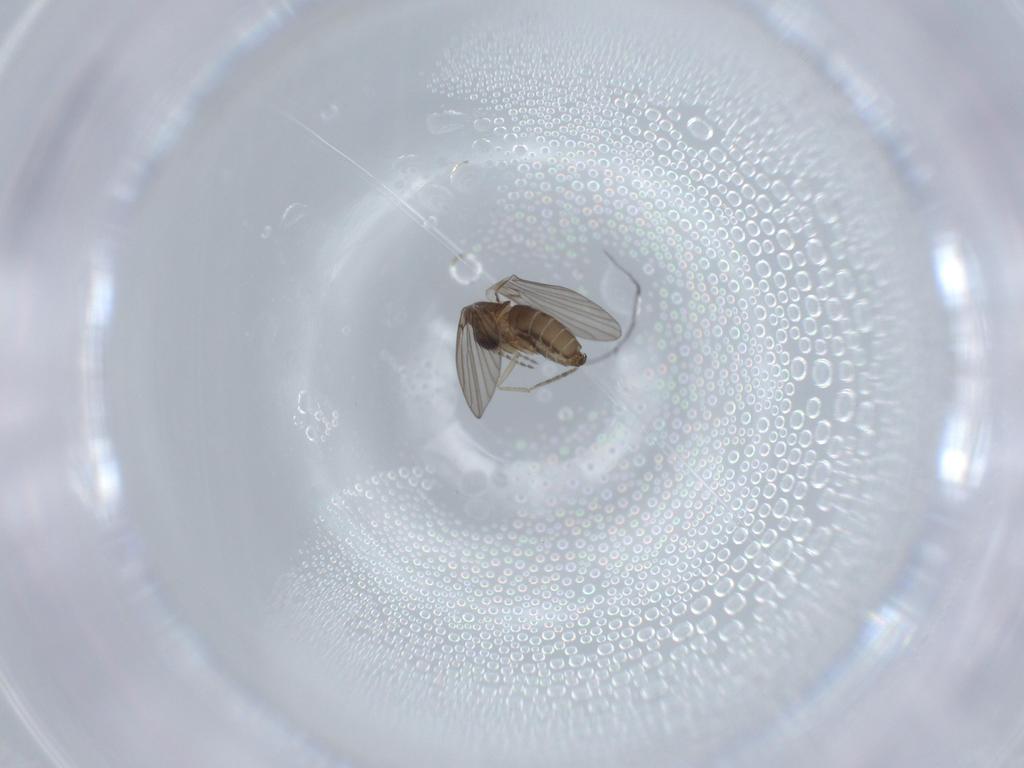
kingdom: Animalia
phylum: Arthropoda
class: Insecta
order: Diptera
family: Psychodidae
